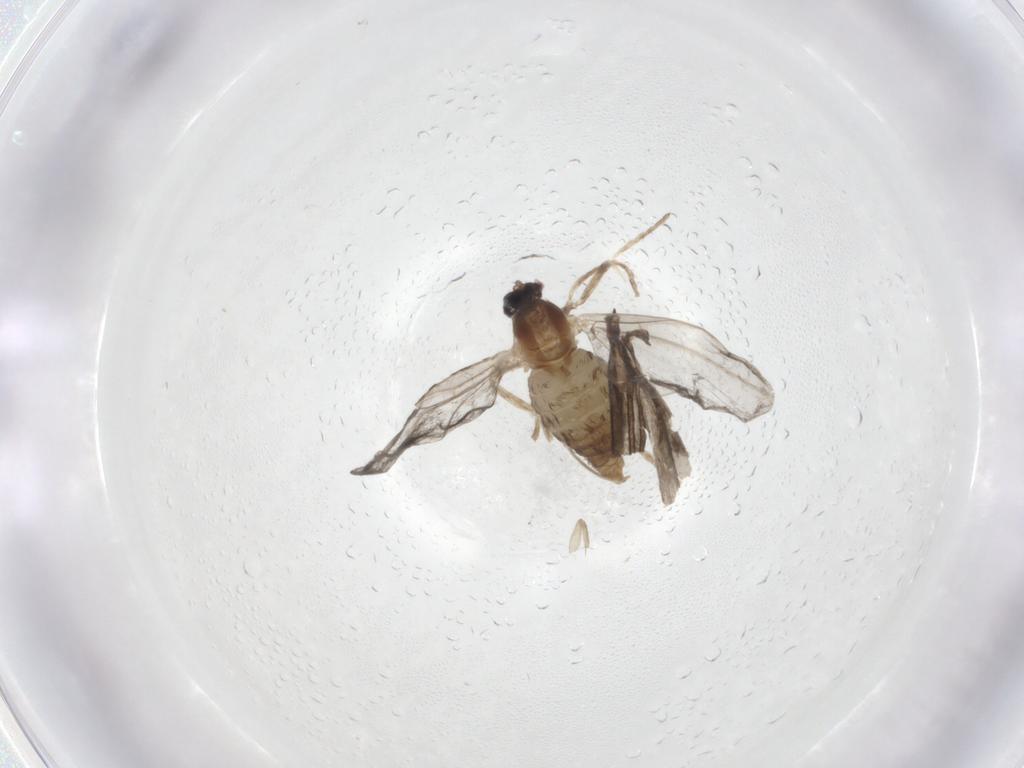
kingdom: Animalia
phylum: Arthropoda
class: Insecta
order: Diptera
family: Phoridae
